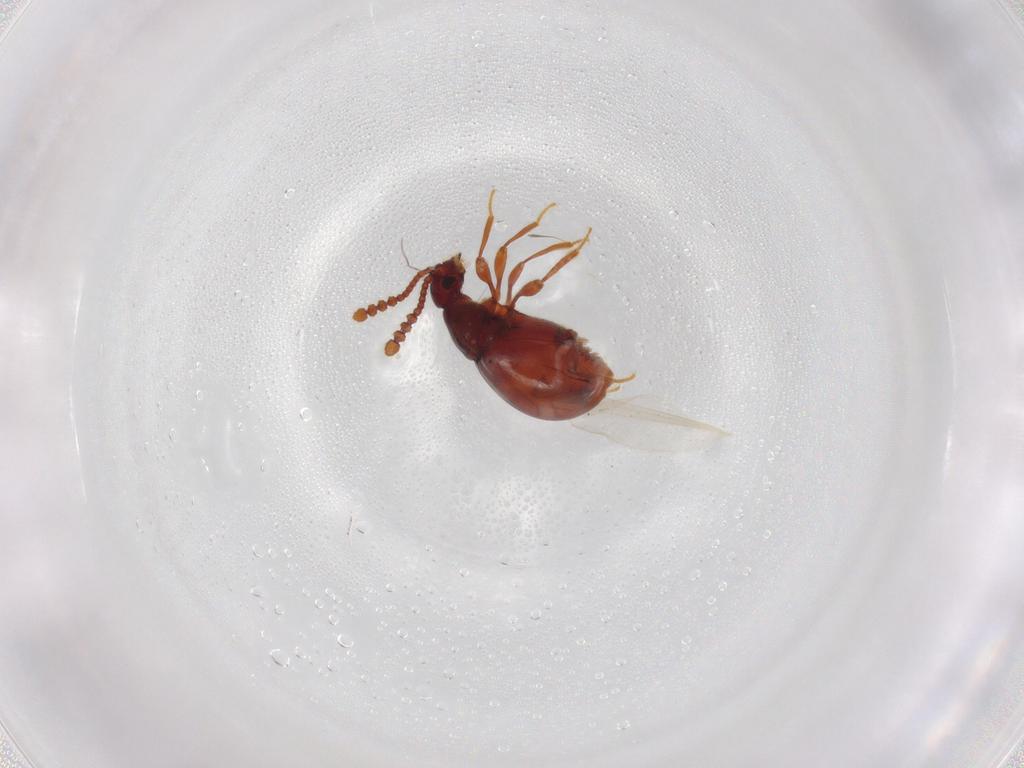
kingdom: Animalia
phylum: Arthropoda
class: Insecta
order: Coleoptera
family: Staphylinidae
